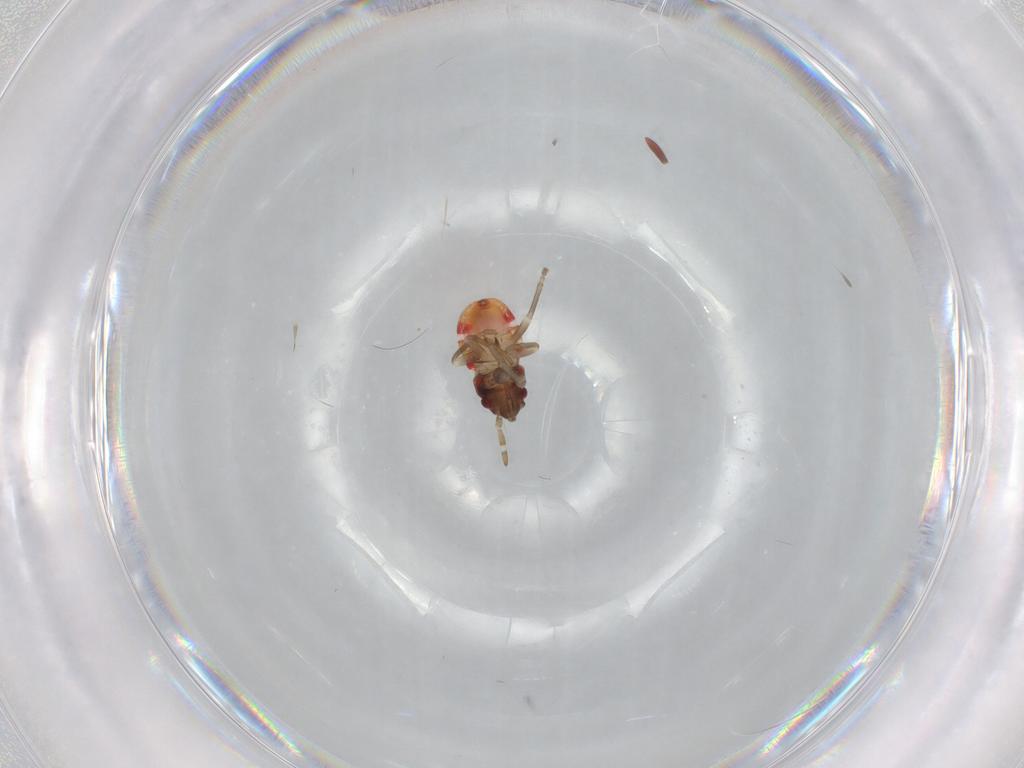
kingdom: Animalia
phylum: Arthropoda
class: Insecta
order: Hemiptera
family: Rhyparochromidae
